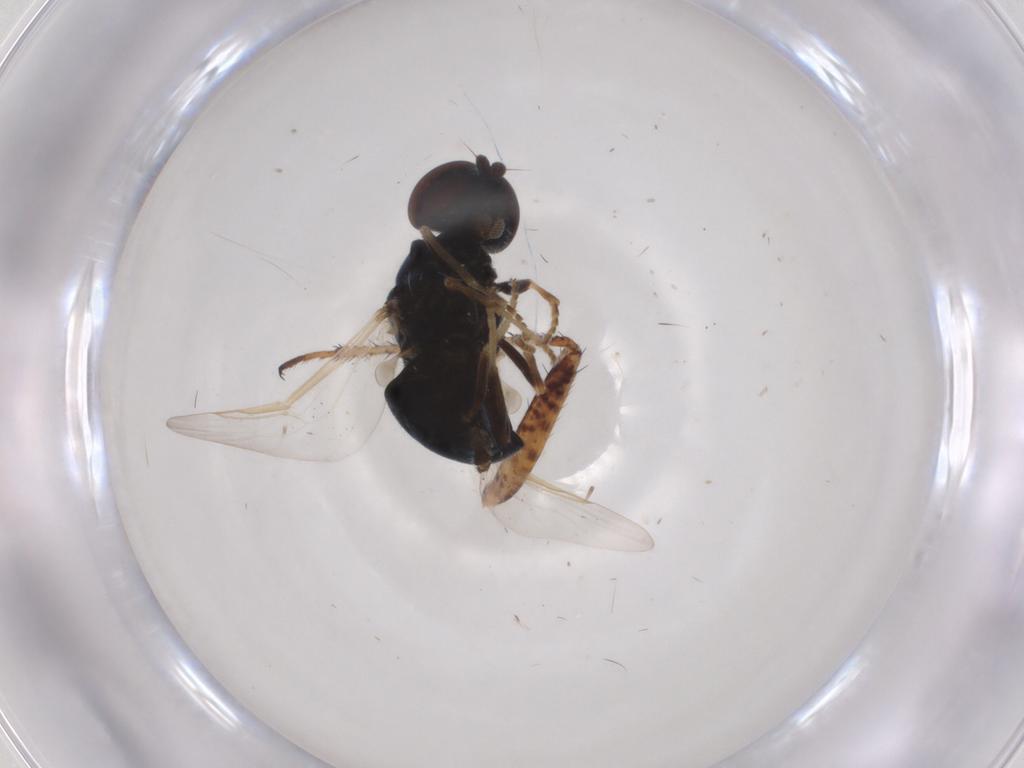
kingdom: Animalia
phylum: Arthropoda
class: Insecta
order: Diptera
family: Stratiomyidae
